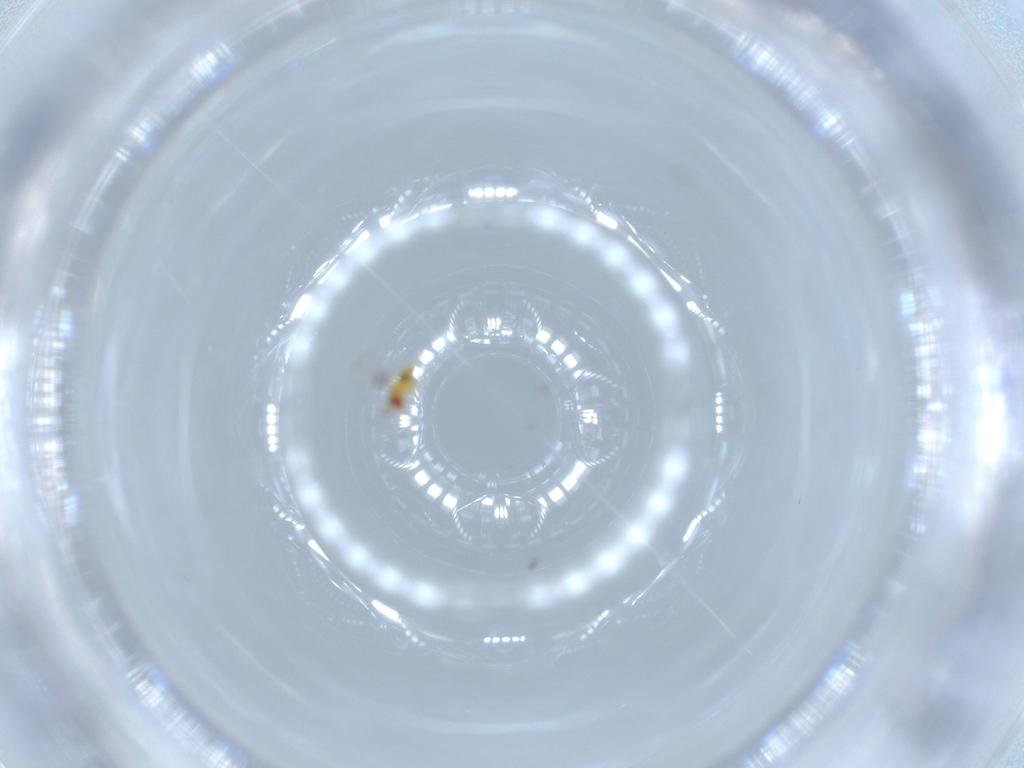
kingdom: Animalia
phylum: Arthropoda
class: Insecta
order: Hymenoptera
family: Trichogrammatidae
